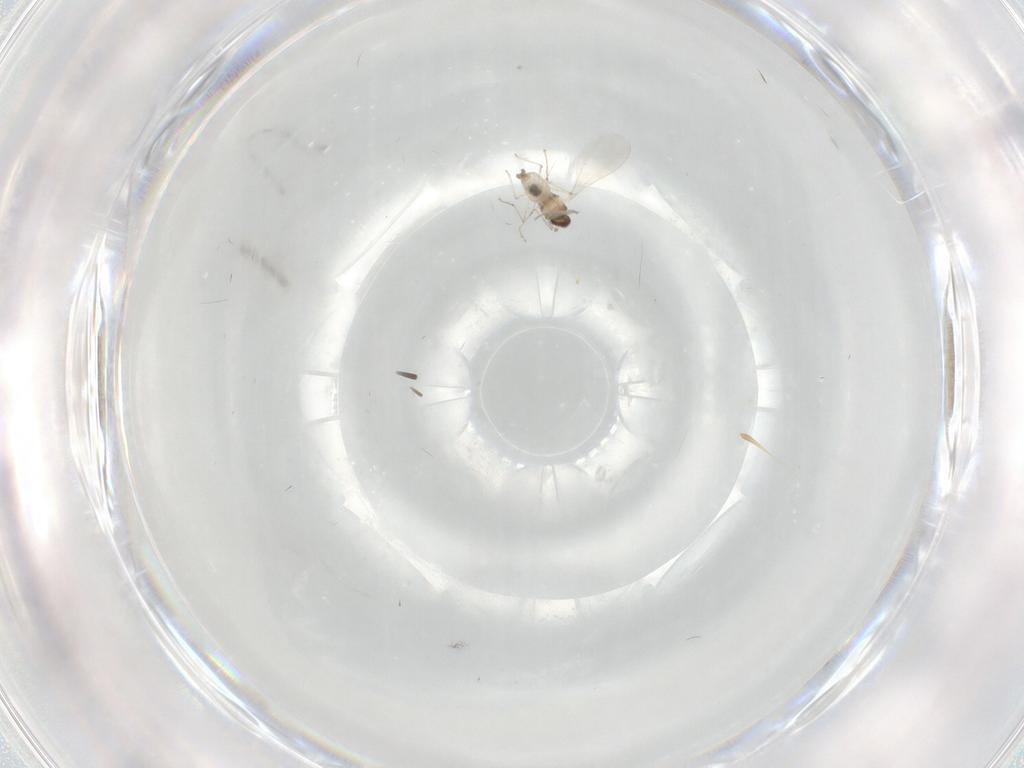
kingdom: Animalia
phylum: Arthropoda
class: Insecta
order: Diptera
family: Cecidomyiidae
